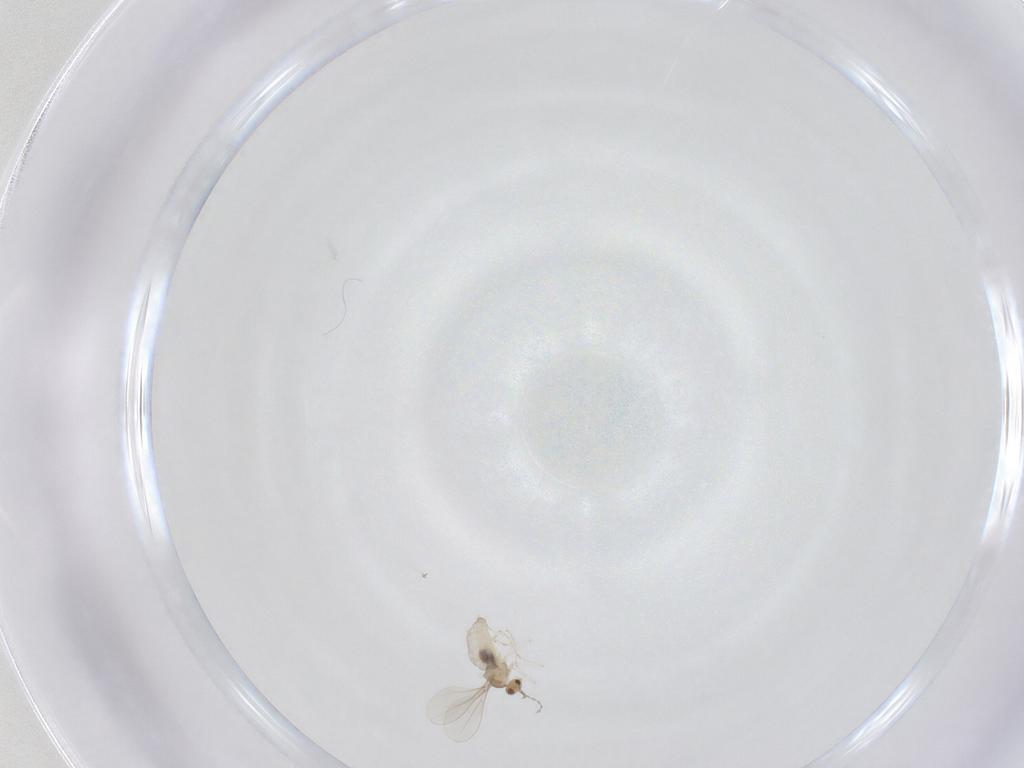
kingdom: Animalia
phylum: Arthropoda
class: Insecta
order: Diptera
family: Cecidomyiidae
